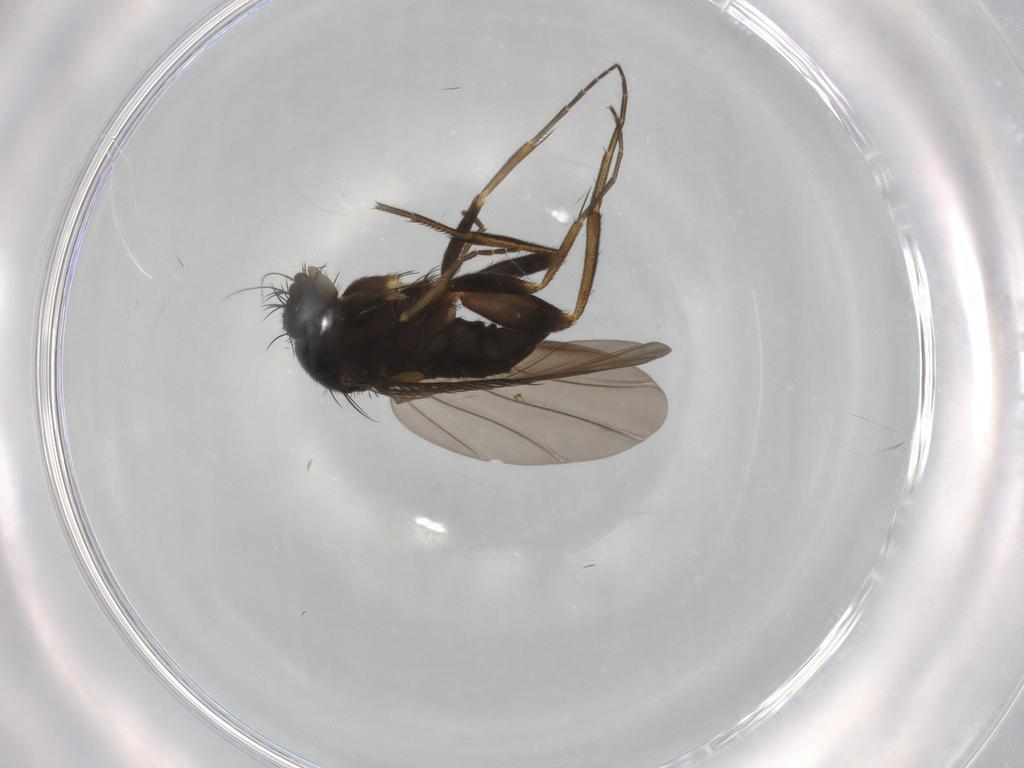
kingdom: Animalia
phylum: Arthropoda
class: Insecta
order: Diptera
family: Phoridae
